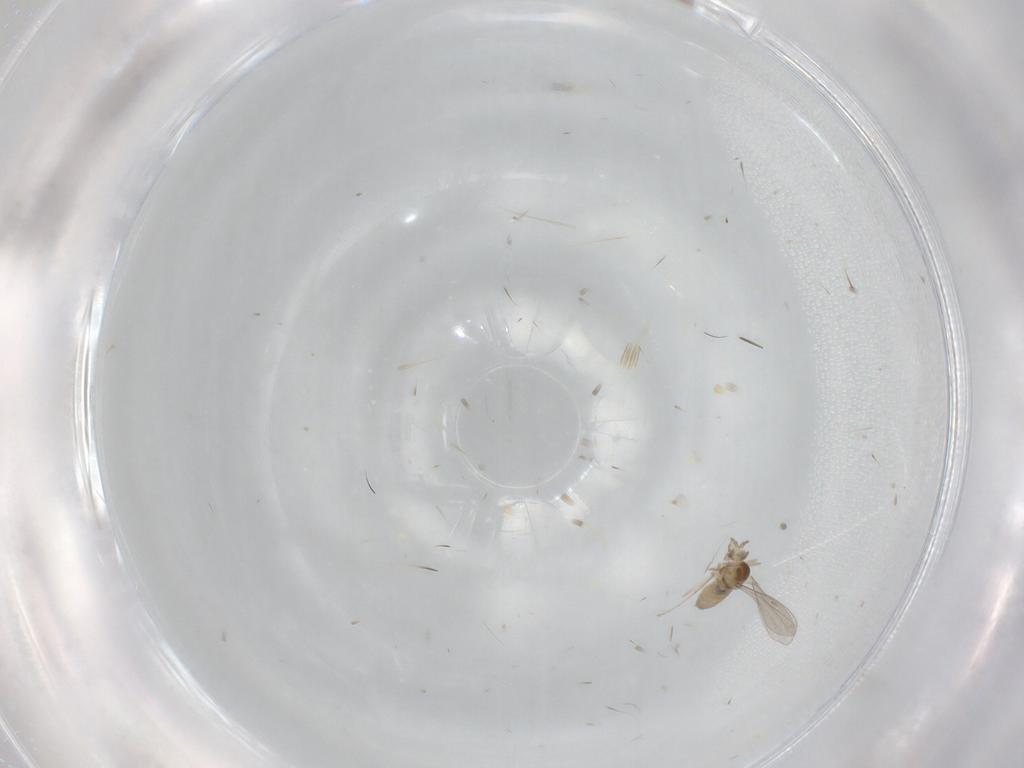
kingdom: Animalia
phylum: Arthropoda
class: Insecta
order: Diptera
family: Cecidomyiidae
